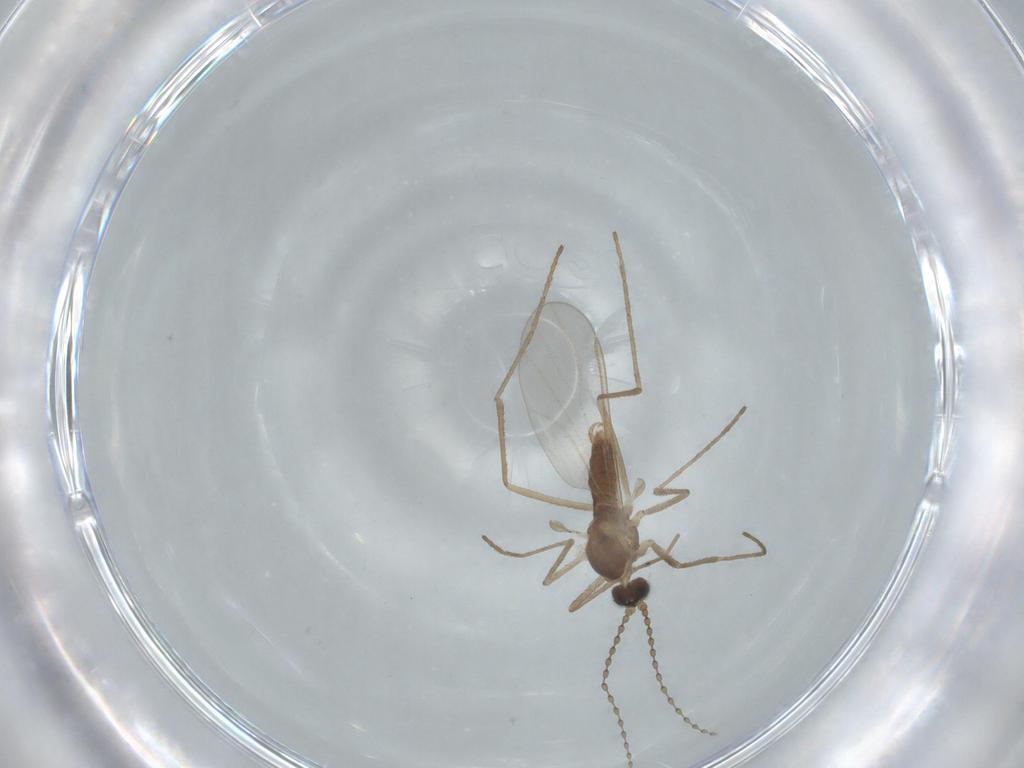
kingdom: Animalia
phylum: Arthropoda
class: Insecta
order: Diptera
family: Cecidomyiidae
